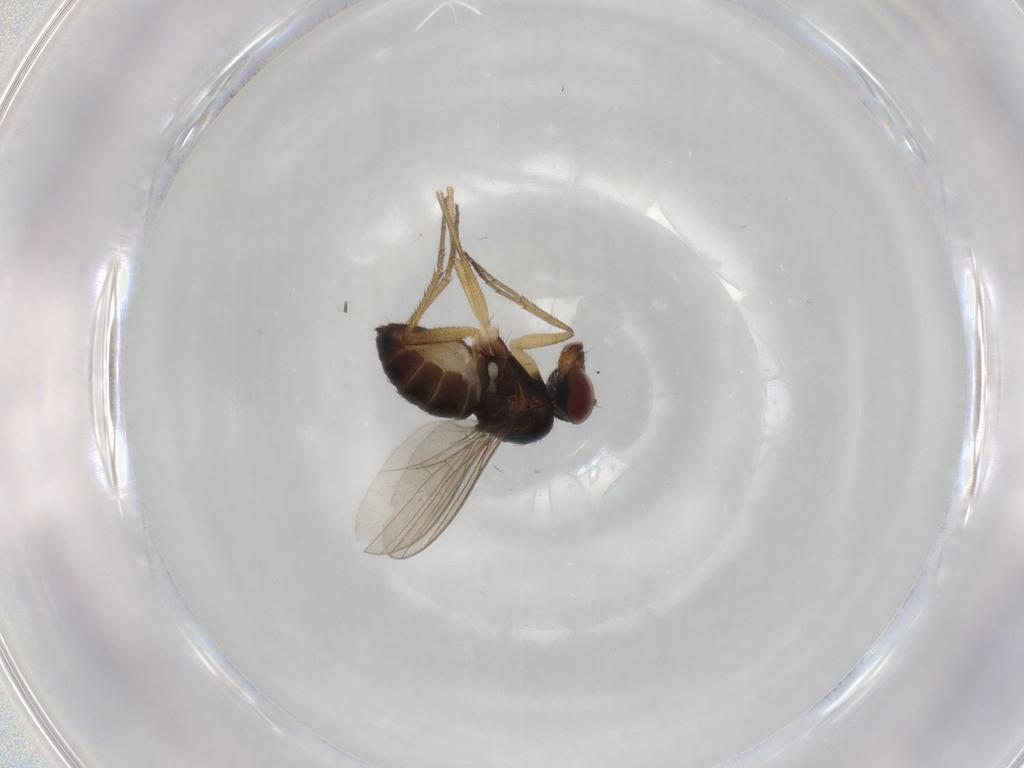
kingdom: Animalia
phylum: Arthropoda
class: Insecta
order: Diptera
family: Dolichopodidae
